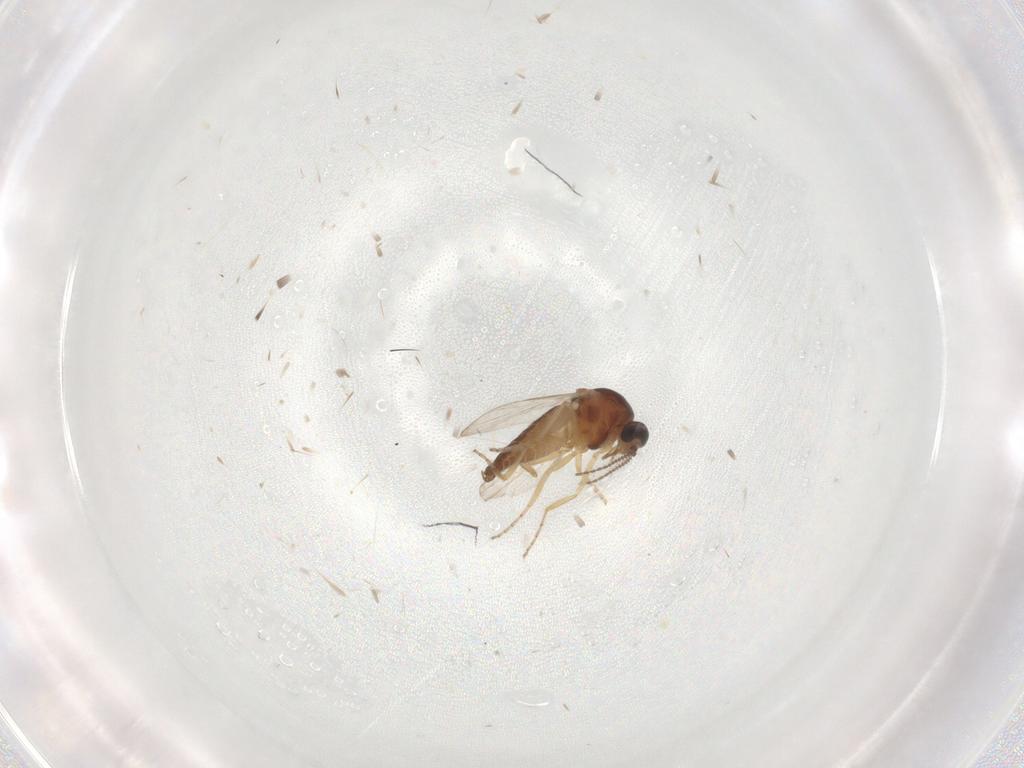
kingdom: Animalia
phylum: Arthropoda
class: Insecta
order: Diptera
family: Ceratopogonidae
